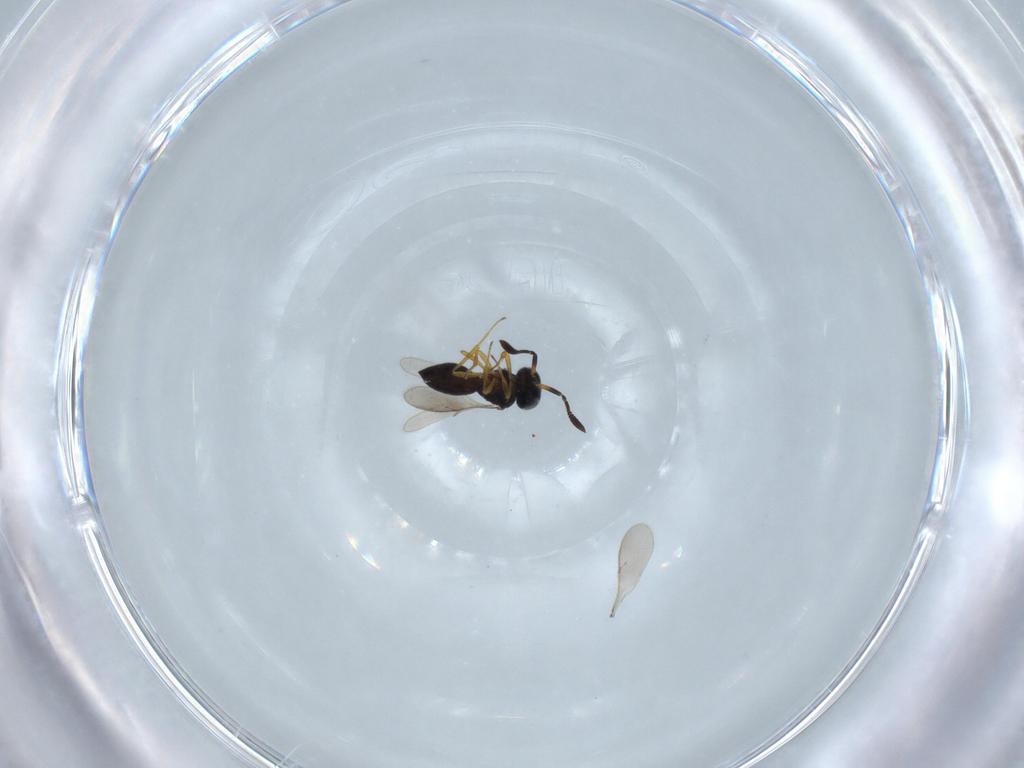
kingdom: Animalia
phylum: Arthropoda
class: Insecta
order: Hymenoptera
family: Scelionidae
